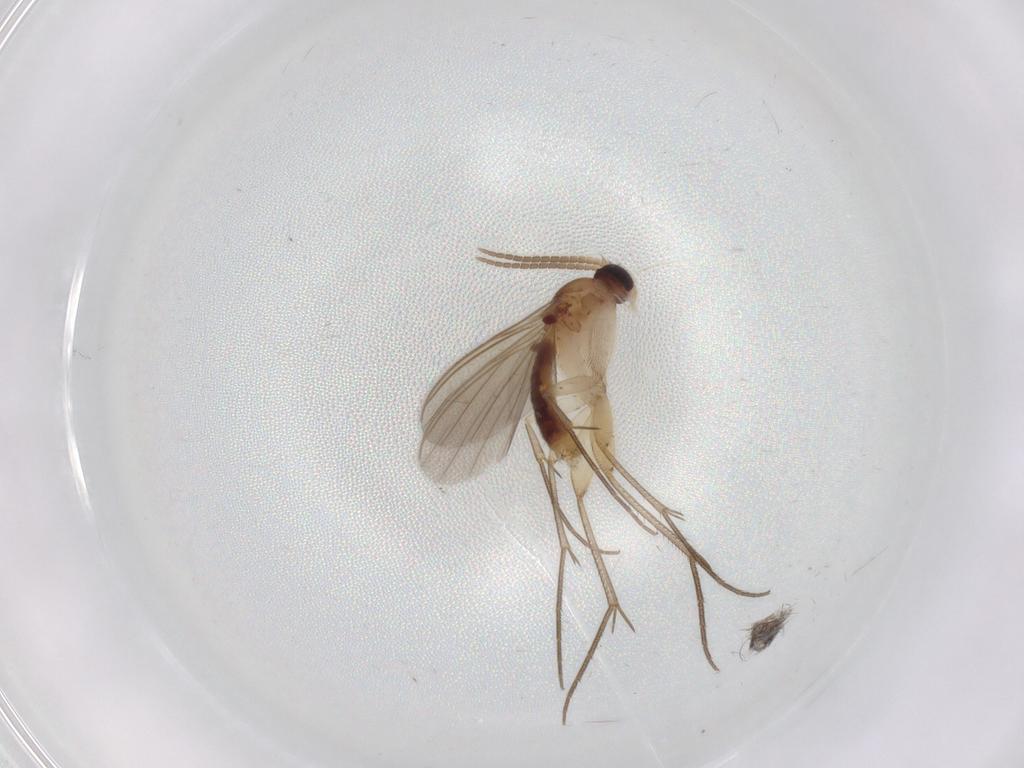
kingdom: Animalia
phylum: Arthropoda
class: Insecta
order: Diptera
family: Mycetophilidae
